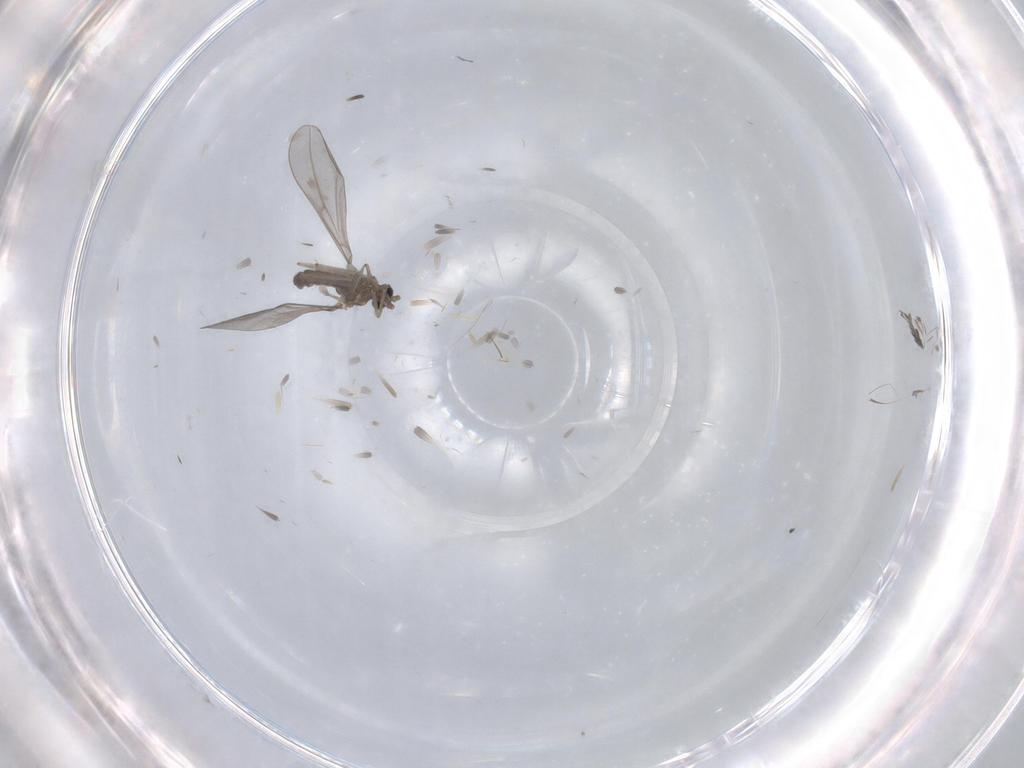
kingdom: Animalia
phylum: Arthropoda
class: Insecta
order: Diptera
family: Cecidomyiidae
